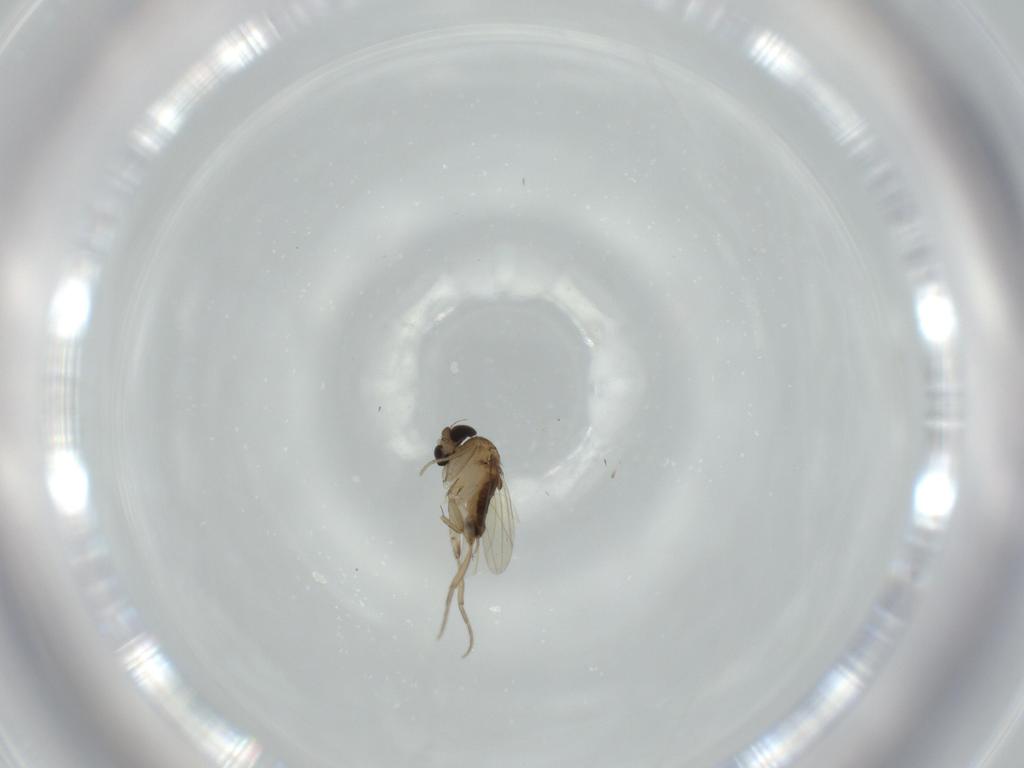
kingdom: Animalia
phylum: Arthropoda
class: Insecta
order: Diptera
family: Phoridae
